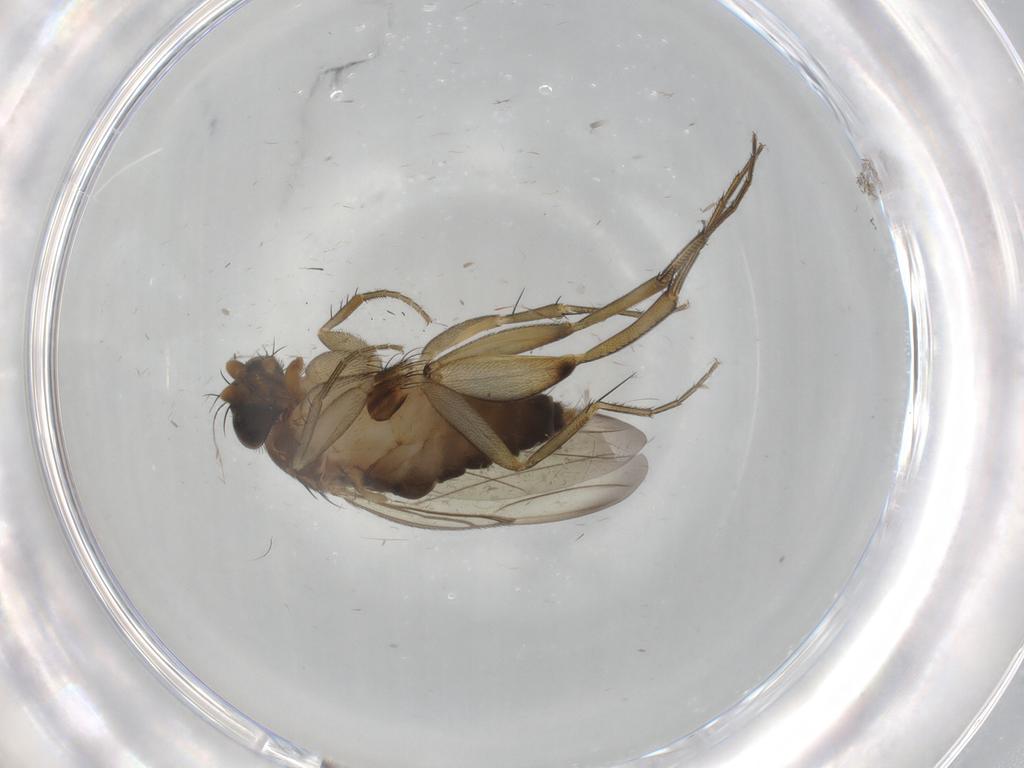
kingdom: Animalia
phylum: Arthropoda
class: Insecta
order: Diptera
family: Phoridae
